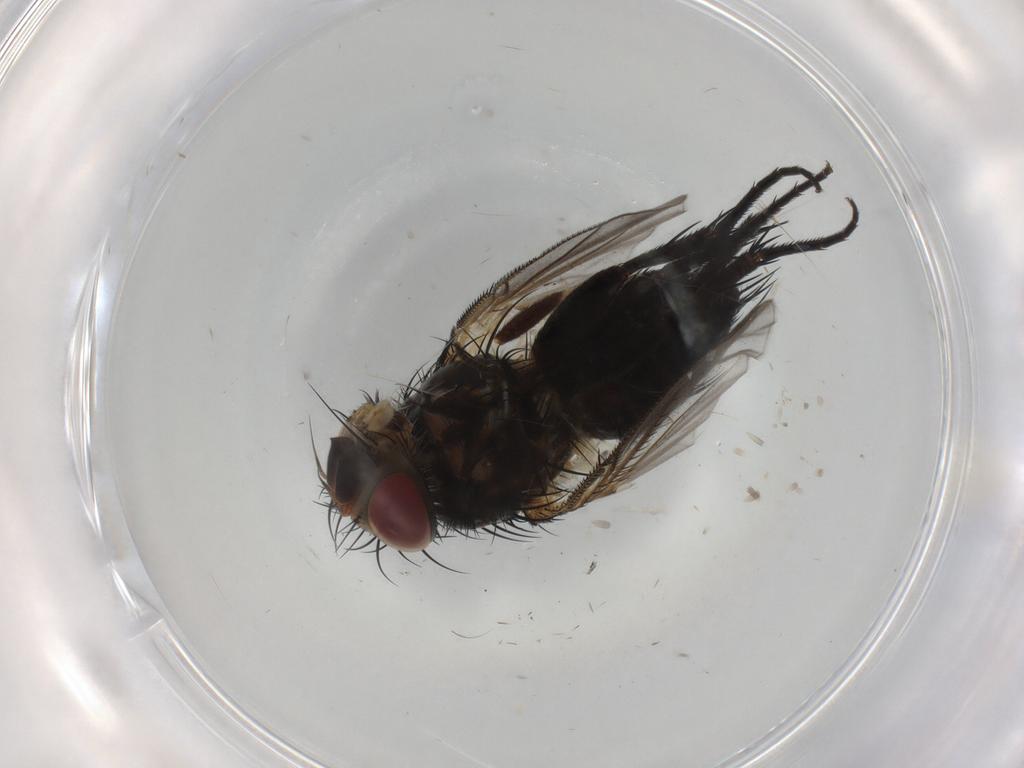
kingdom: Animalia
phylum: Arthropoda
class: Insecta
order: Diptera
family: Tachinidae
